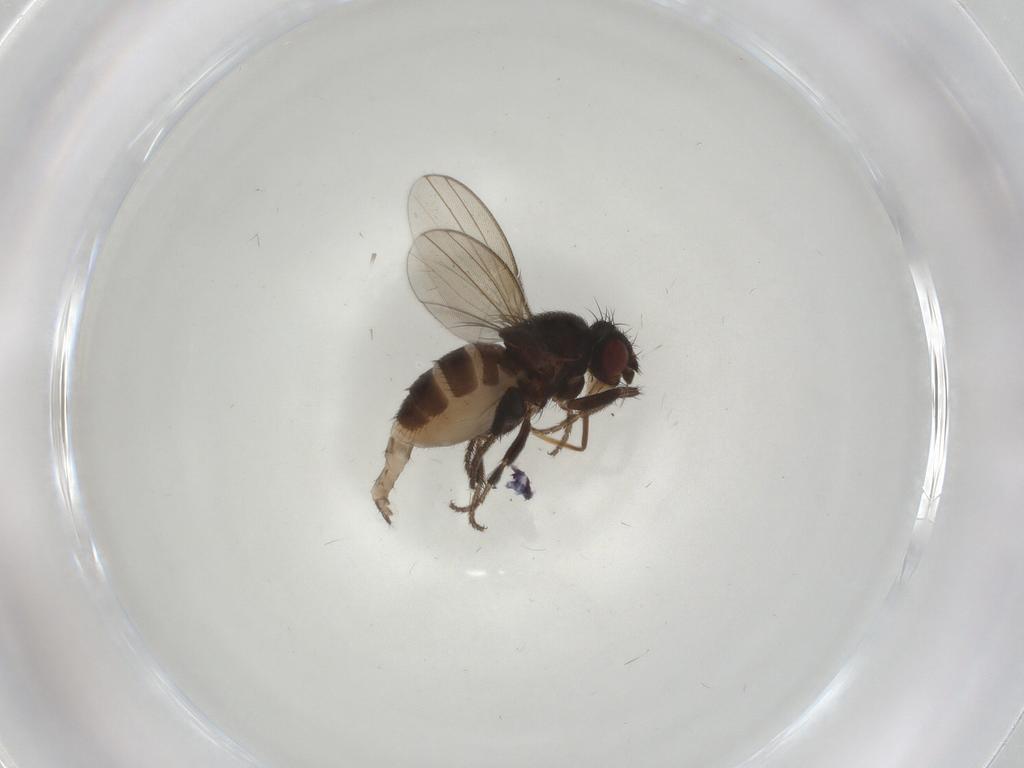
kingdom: Animalia
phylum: Arthropoda
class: Insecta
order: Diptera
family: Milichiidae
